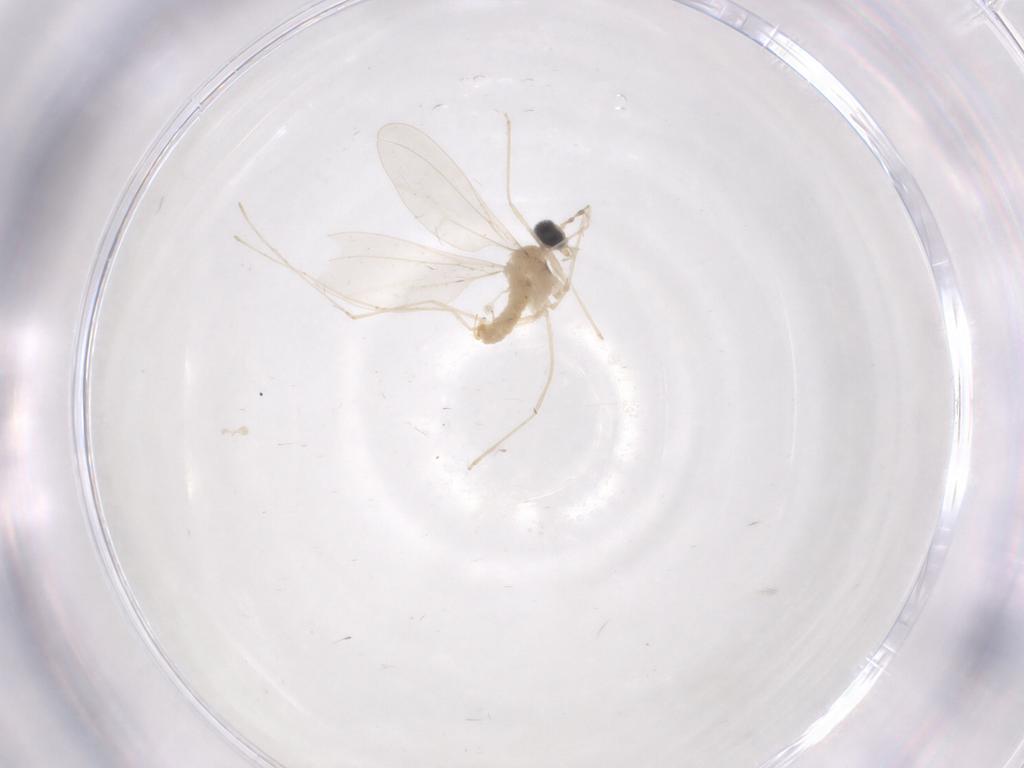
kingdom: Animalia
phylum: Arthropoda
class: Insecta
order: Diptera
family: Cecidomyiidae
